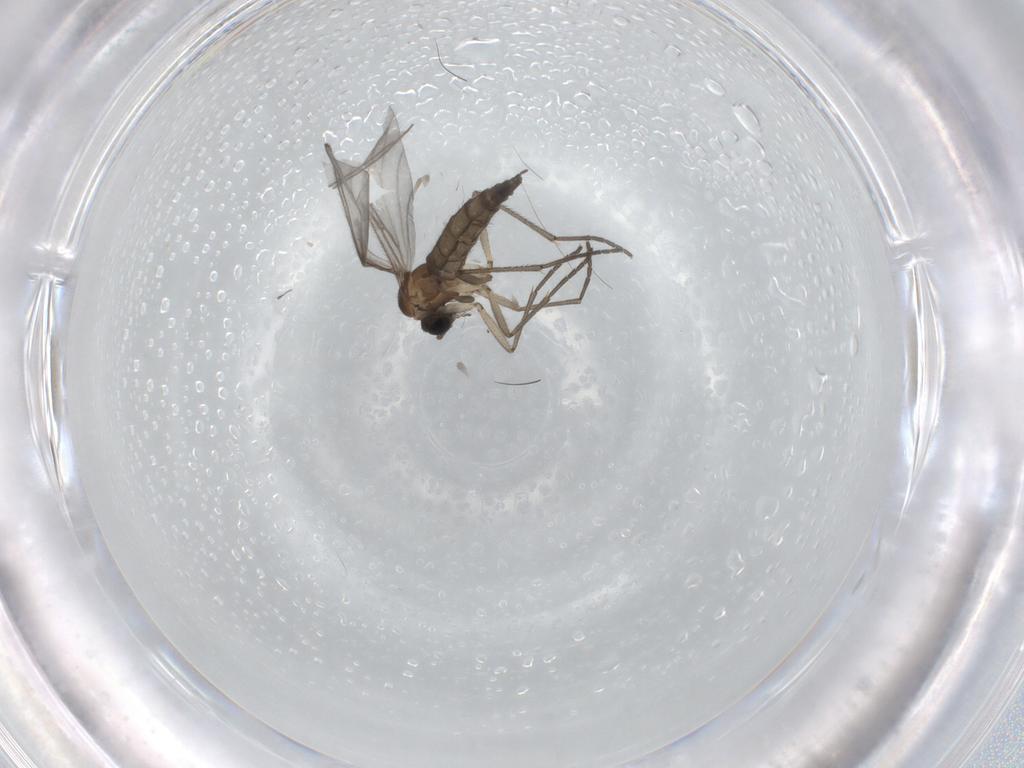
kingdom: Animalia
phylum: Arthropoda
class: Insecta
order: Diptera
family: Sciaridae
